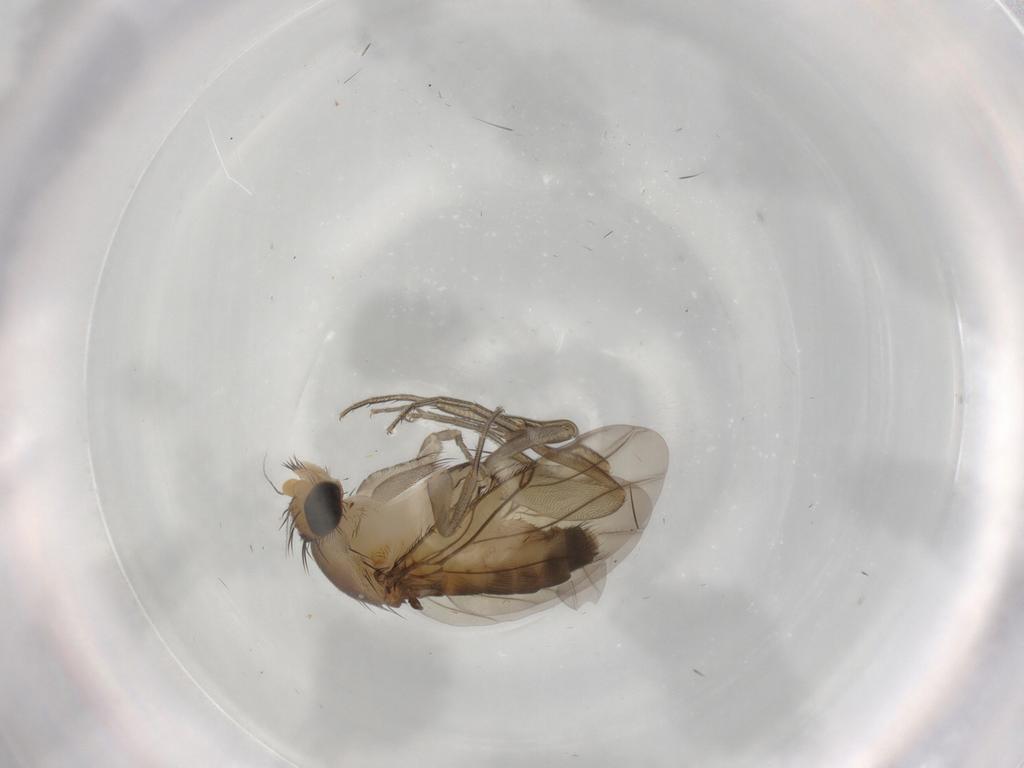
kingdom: Animalia
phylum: Arthropoda
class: Insecta
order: Diptera
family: Phoridae
